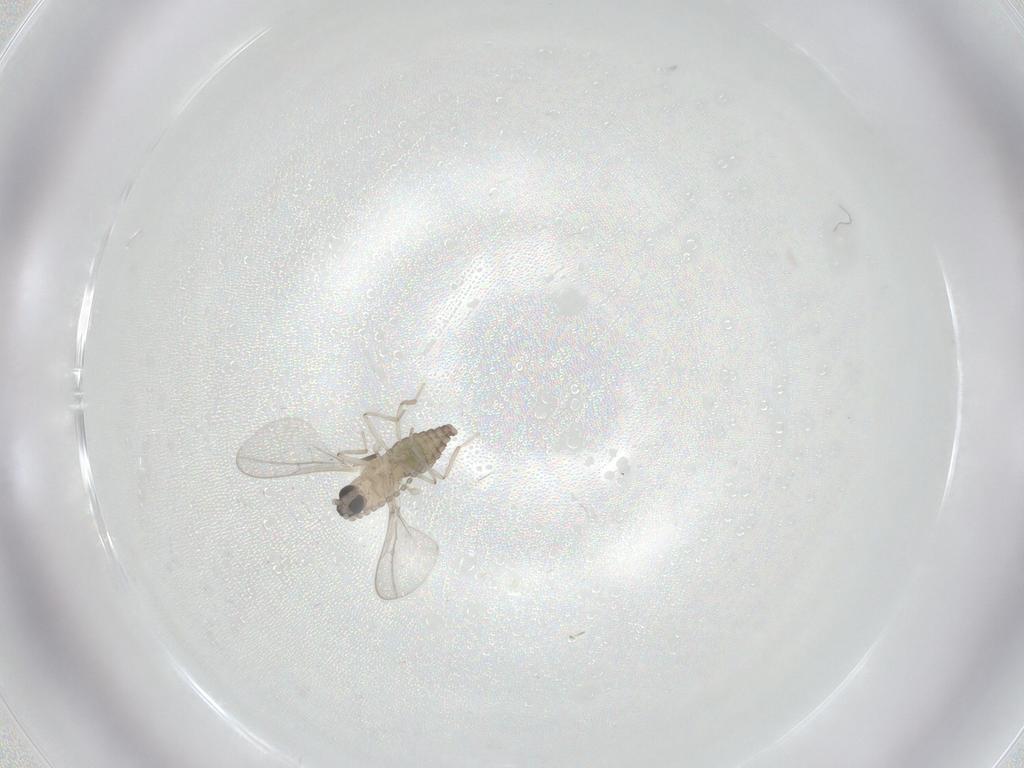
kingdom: Animalia
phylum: Arthropoda
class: Insecta
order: Diptera
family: Cecidomyiidae
